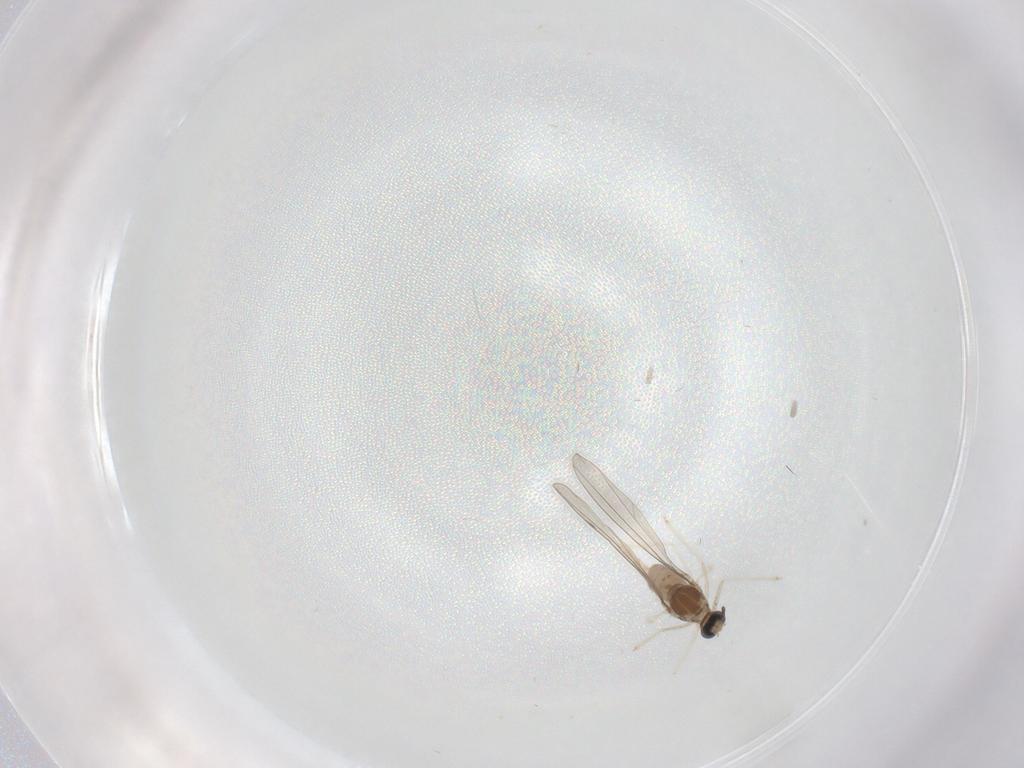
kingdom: Animalia
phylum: Arthropoda
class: Insecta
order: Diptera
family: Cecidomyiidae
